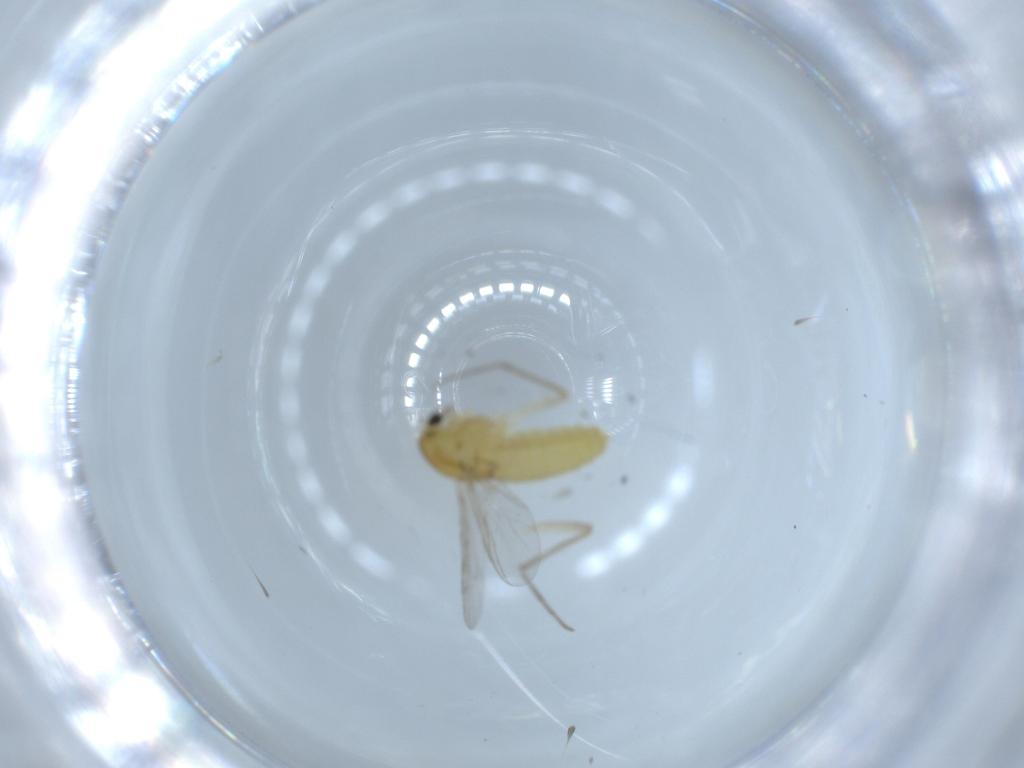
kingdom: Animalia
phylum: Arthropoda
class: Insecta
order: Diptera
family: Chironomidae
